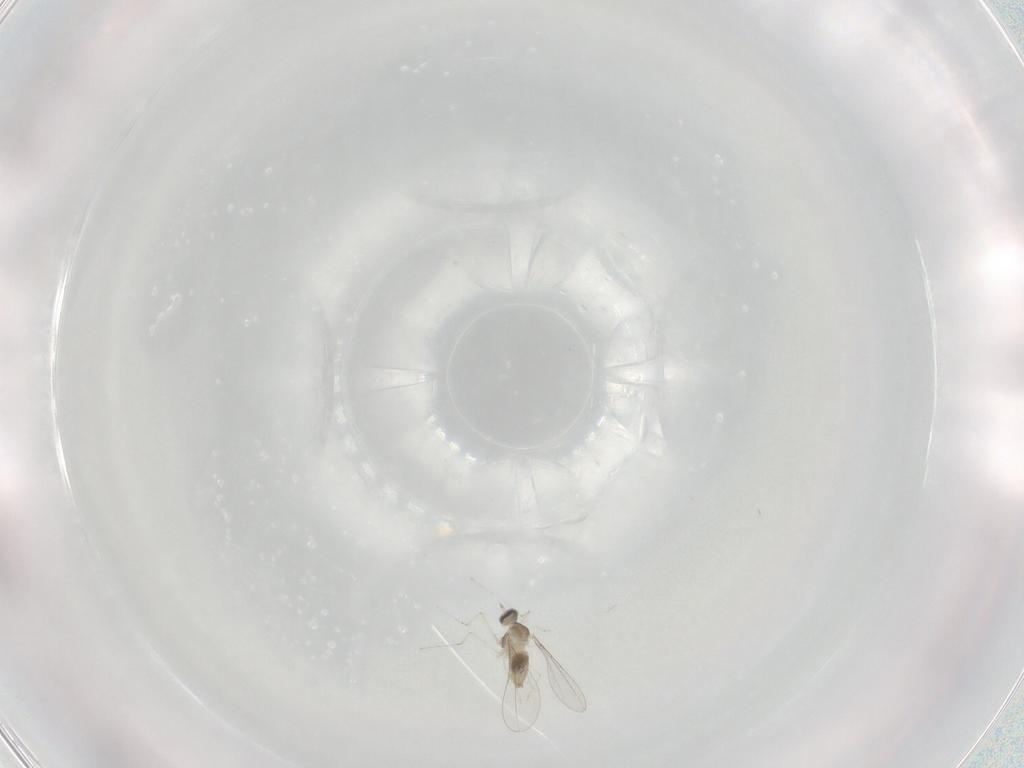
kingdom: Animalia
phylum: Arthropoda
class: Insecta
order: Diptera
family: Cecidomyiidae
